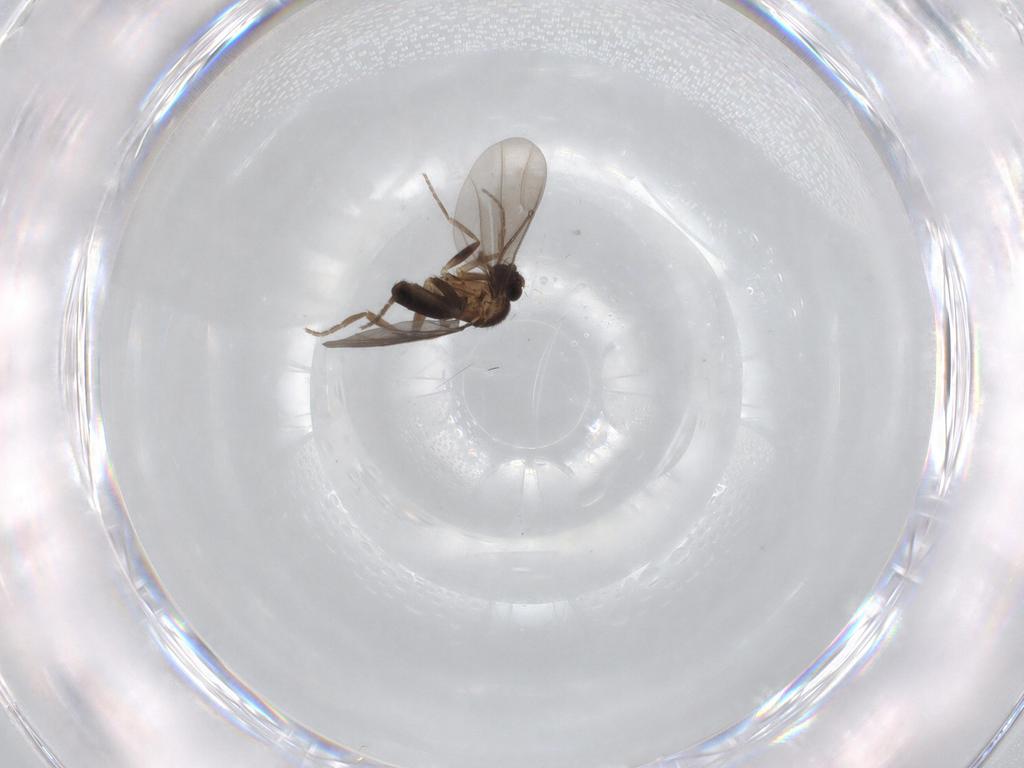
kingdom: Animalia
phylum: Arthropoda
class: Insecta
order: Diptera
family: Phoridae
